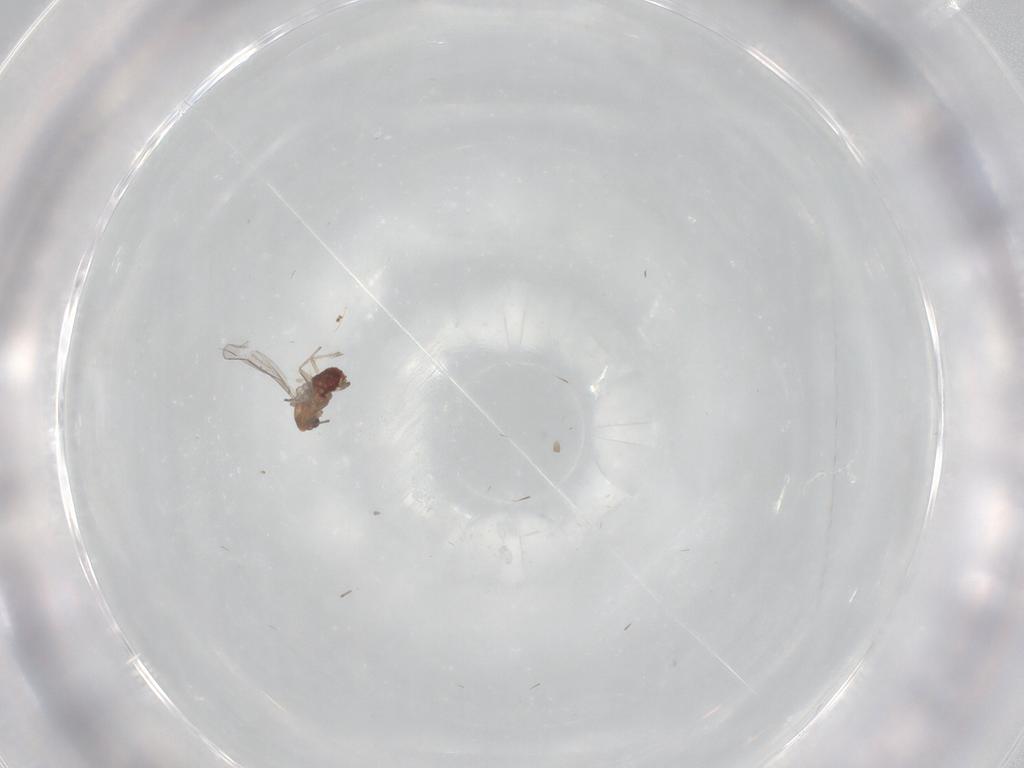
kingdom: Animalia
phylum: Arthropoda
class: Insecta
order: Diptera
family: Chironomidae
